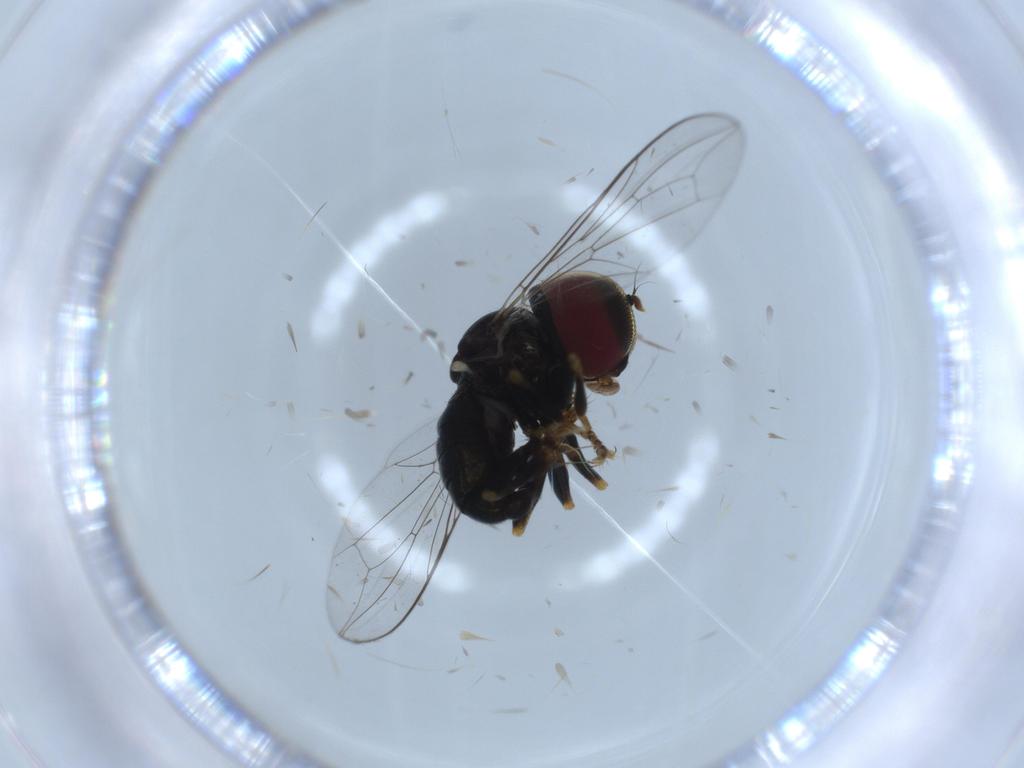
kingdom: Animalia
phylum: Arthropoda
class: Insecta
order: Diptera
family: Pipunculidae
